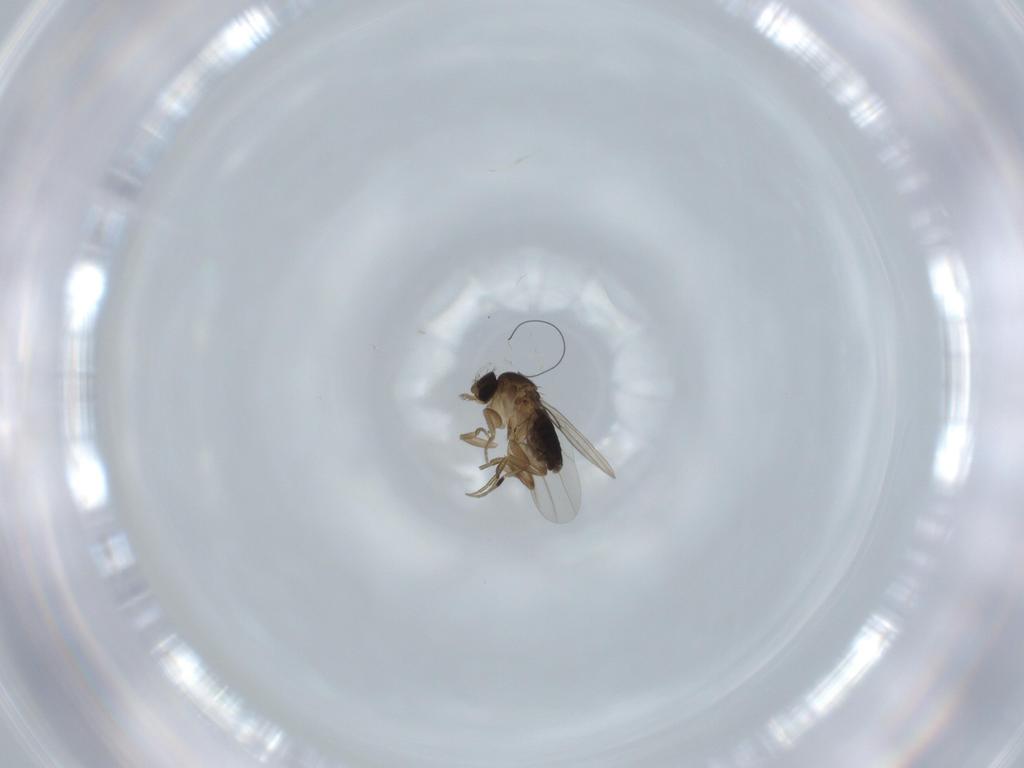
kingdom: Animalia
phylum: Arthropoda
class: Insecta
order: Diptera
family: Phoridae
